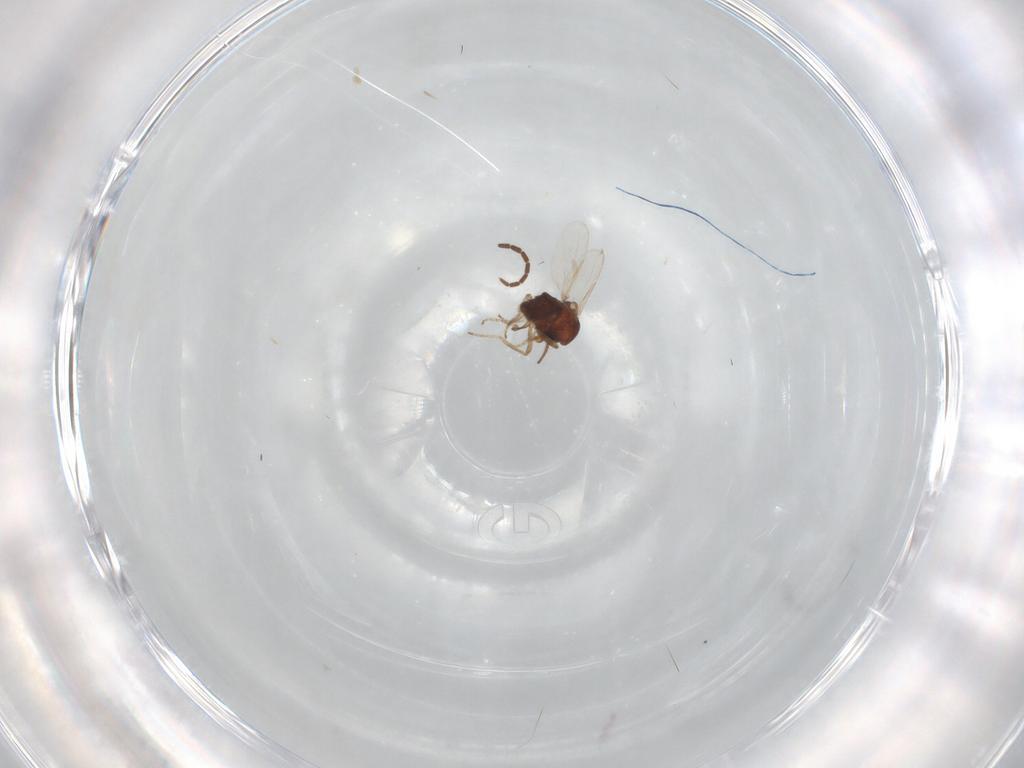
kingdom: Animalia
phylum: Arthropoda
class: Insecta
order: Diptera
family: Ceratopogonidae
